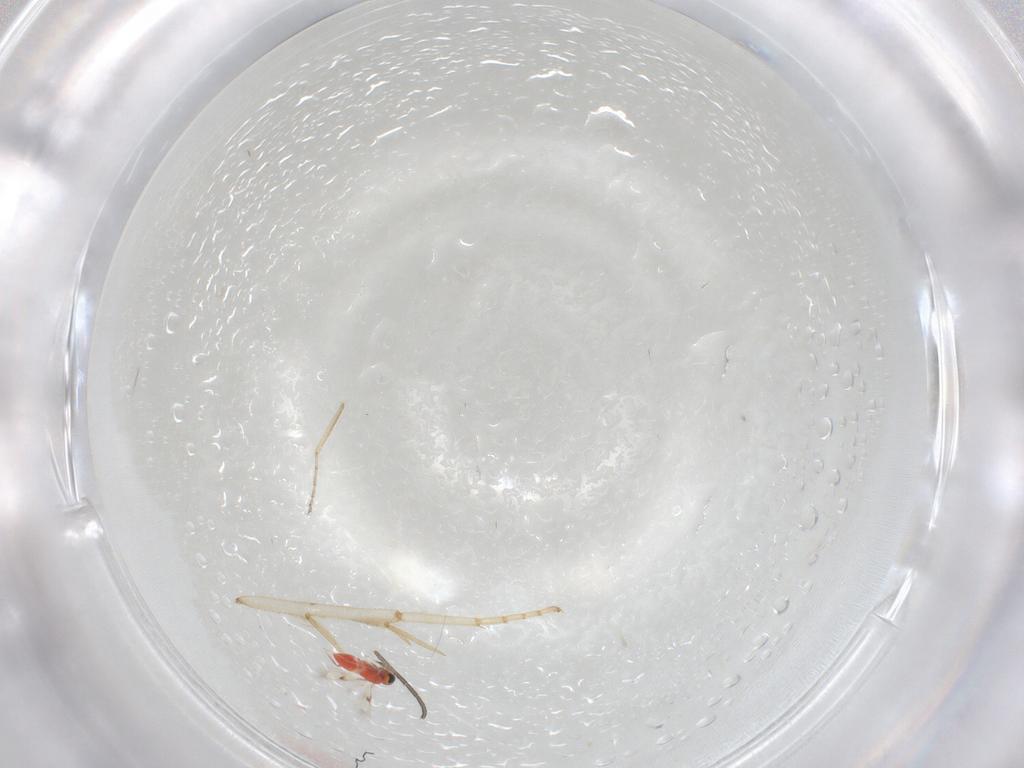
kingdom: Animalia
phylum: Arthropoda
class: Insecta
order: Hymenoptera
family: Trichogrammatidae
